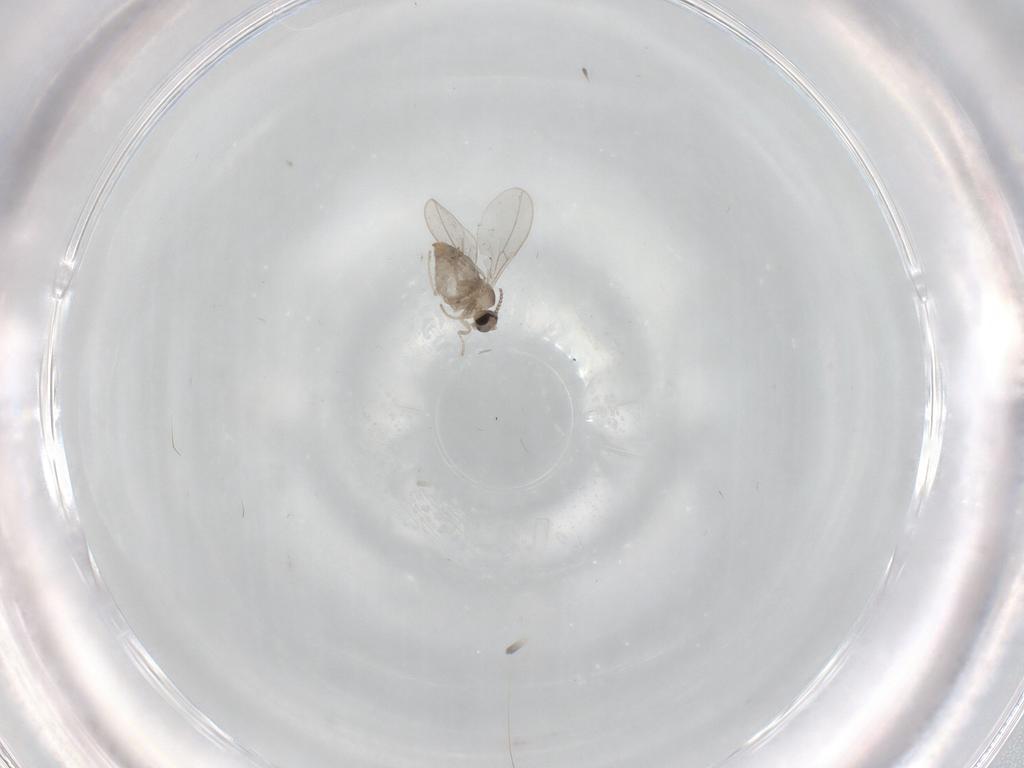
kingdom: Animalia
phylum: Arthropoda
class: Insecta
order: Diptera
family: Cecidomyiidae
